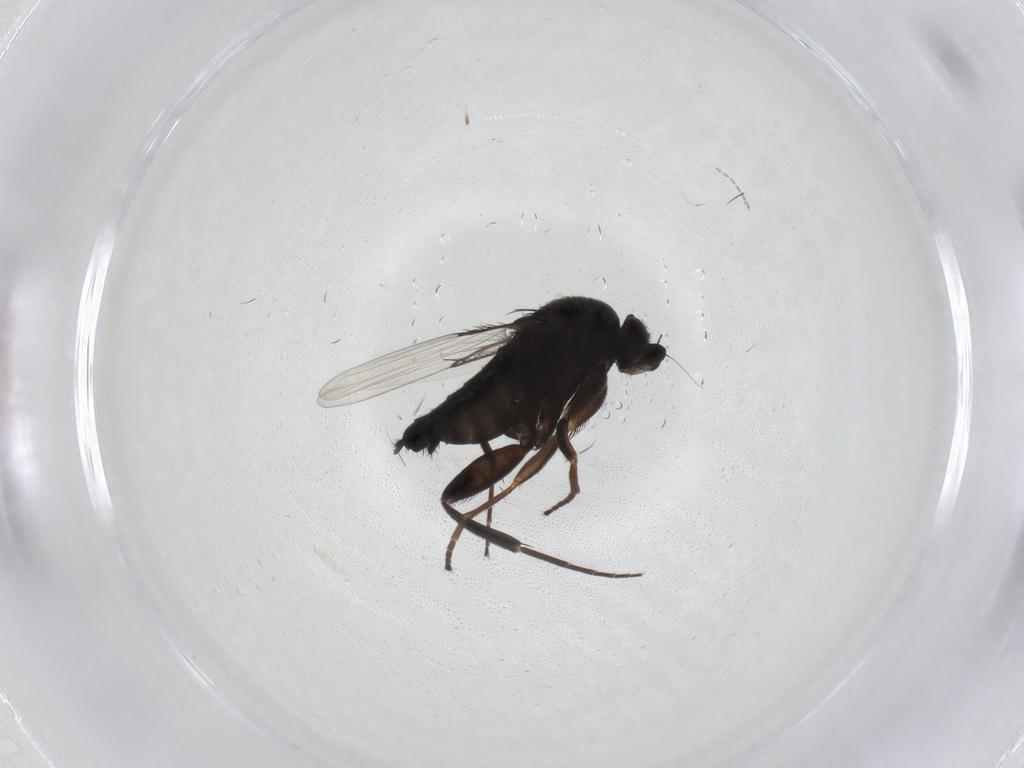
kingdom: Animalia
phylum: Arthropoda
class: Insecta
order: Diptera
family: Phoridae
